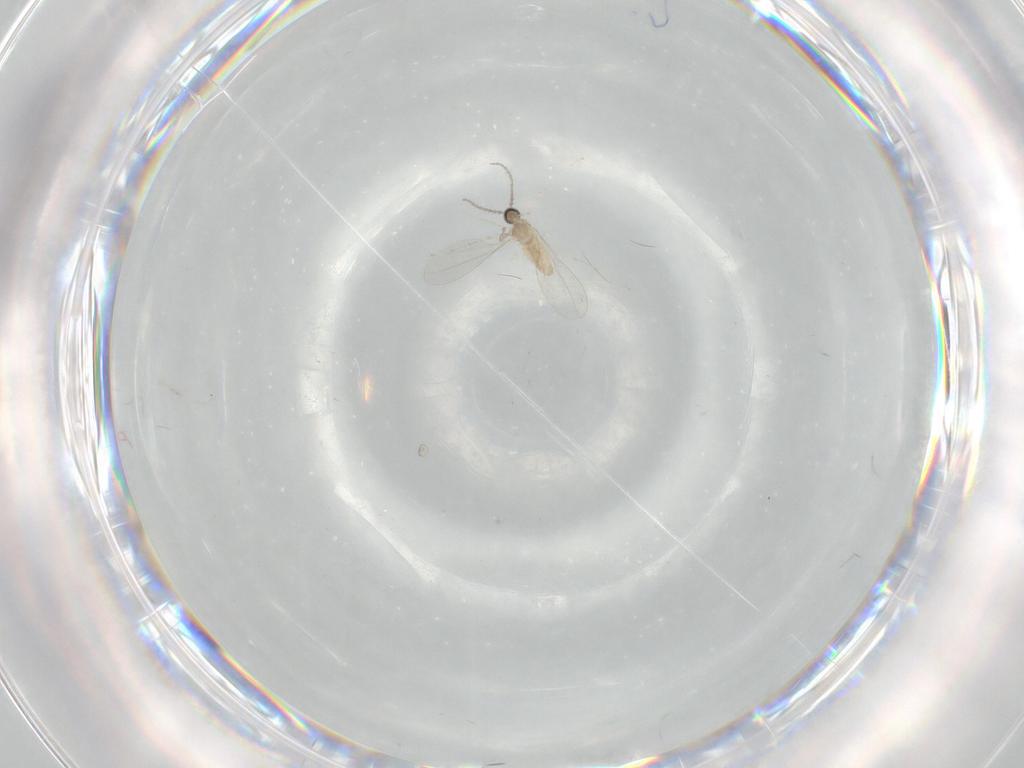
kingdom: Animalia
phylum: Arthropoda
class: Insecta
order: Diptera
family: Cecidomyiidae
